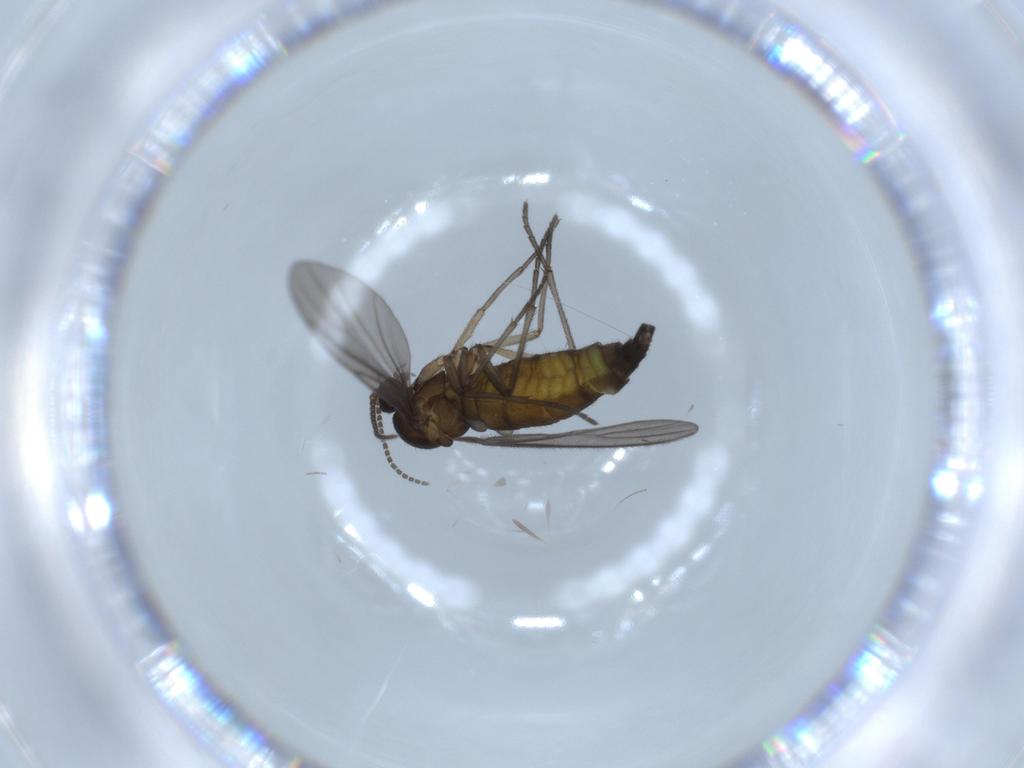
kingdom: Animalia
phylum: Arthropoda
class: Insecta
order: Diptera
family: Sciaridae
